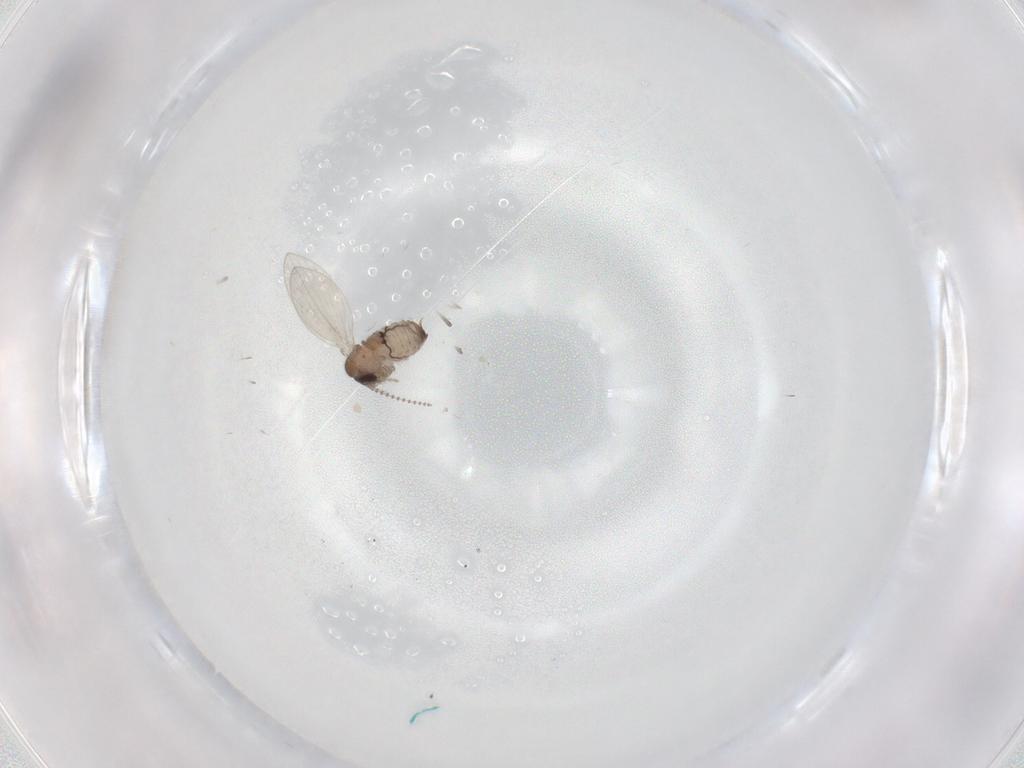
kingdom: Animalia
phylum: Arthropoda
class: Insecta
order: Diptera
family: Psychodidae
